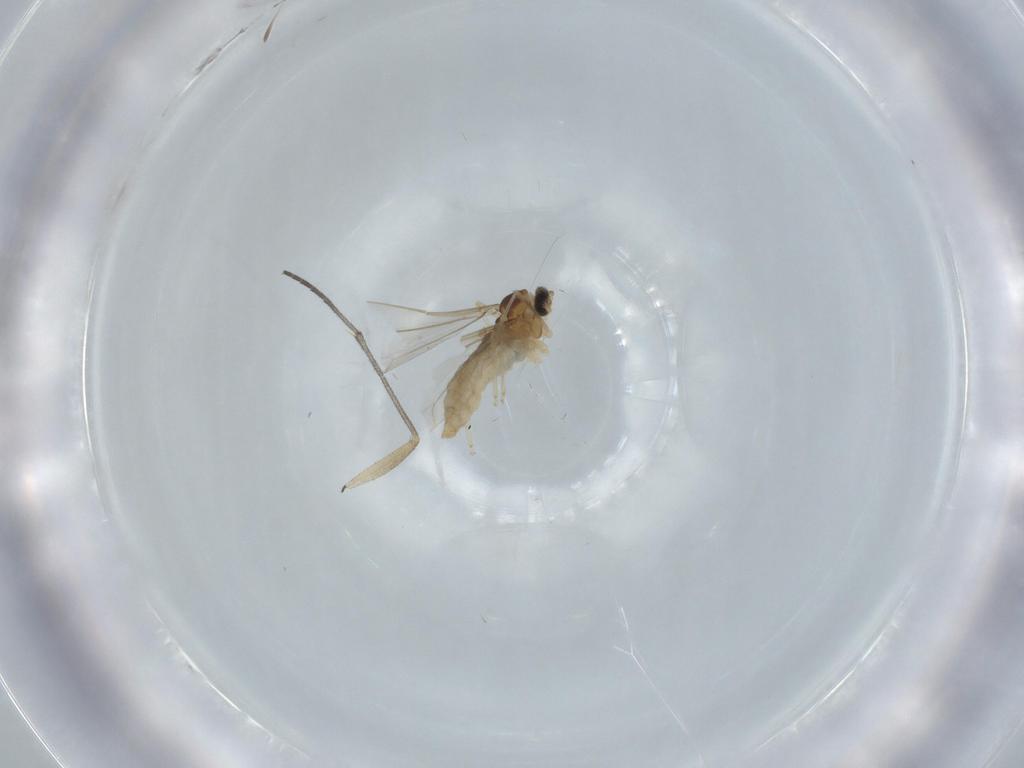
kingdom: Animalia
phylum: Arthropoda
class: Insecta
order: Diptera
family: Cecidomyiidae
